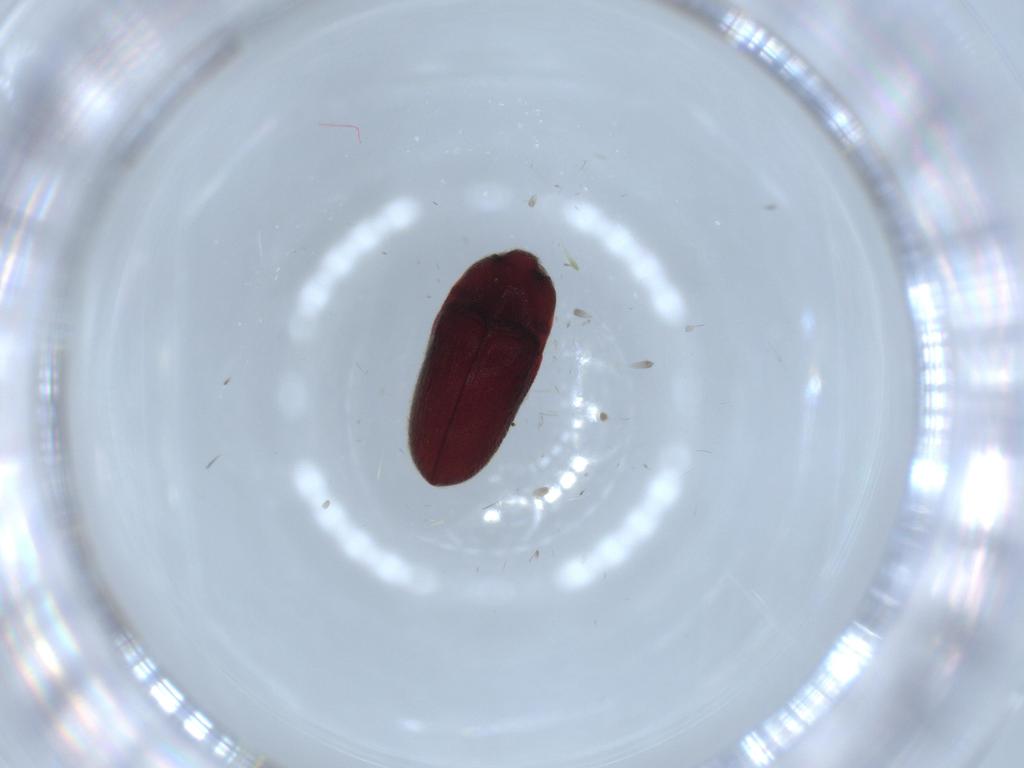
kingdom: Animalia
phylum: Arthropoda
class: Insecta
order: Coleoptera
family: Throscidae
